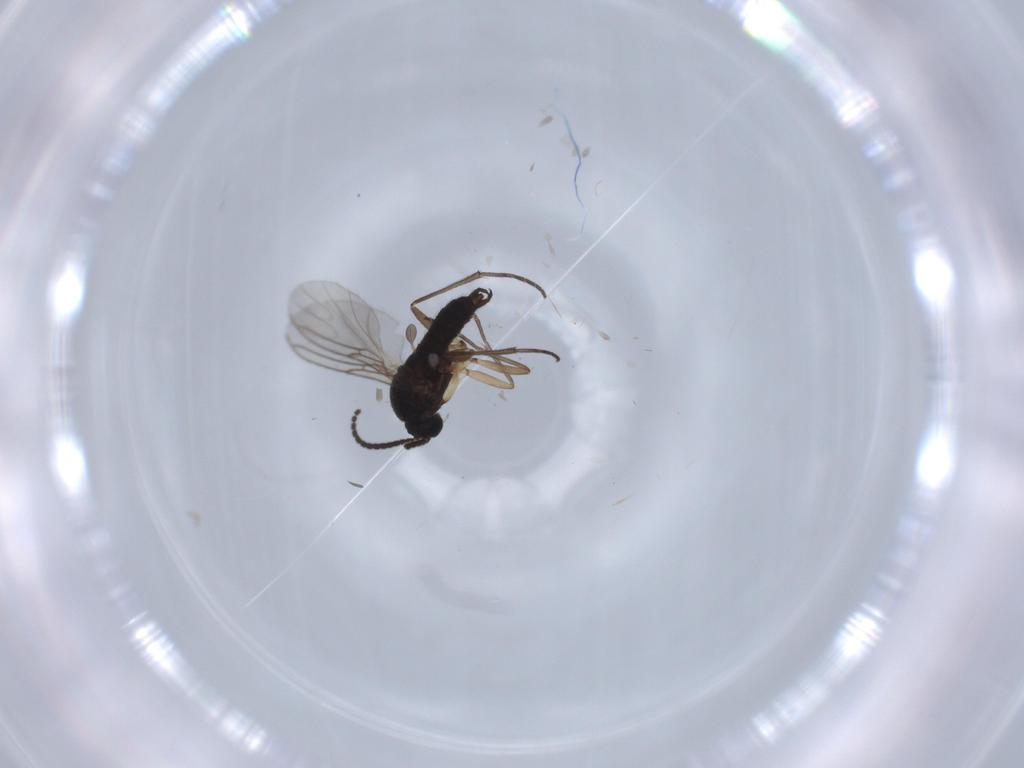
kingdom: Animalia
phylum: Arthropoda
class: Insecta
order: Diptera
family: Sciaridae
